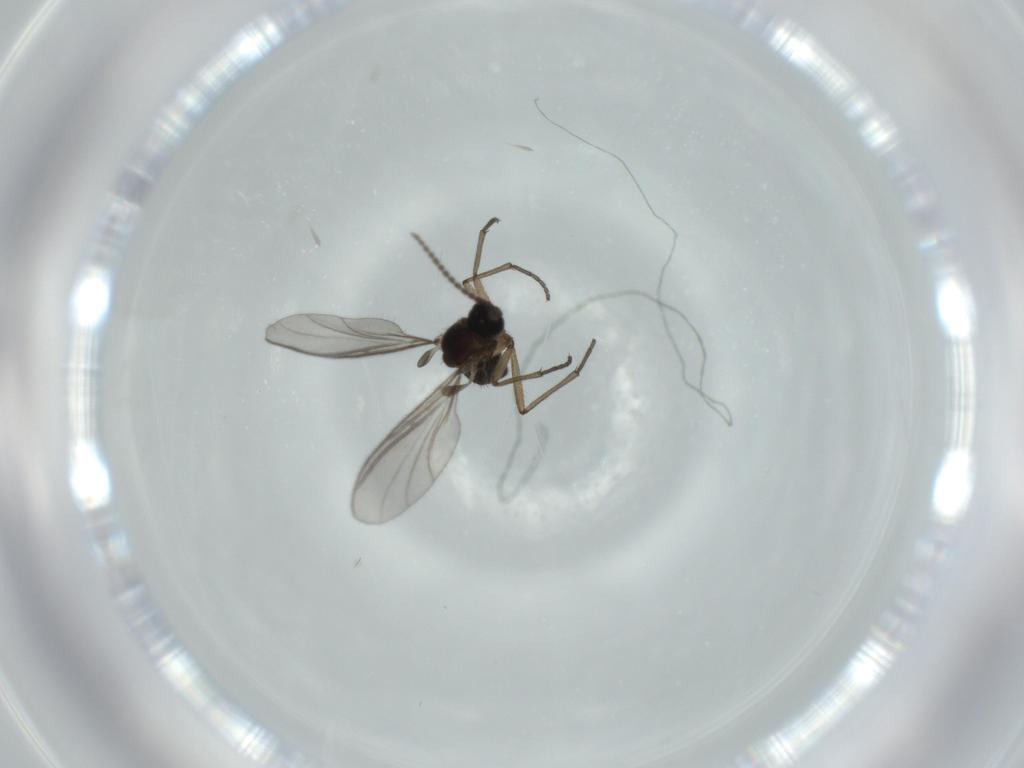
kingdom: Animalia
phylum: Arthropoda
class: Insecta
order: Diptera
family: Sciaridae
